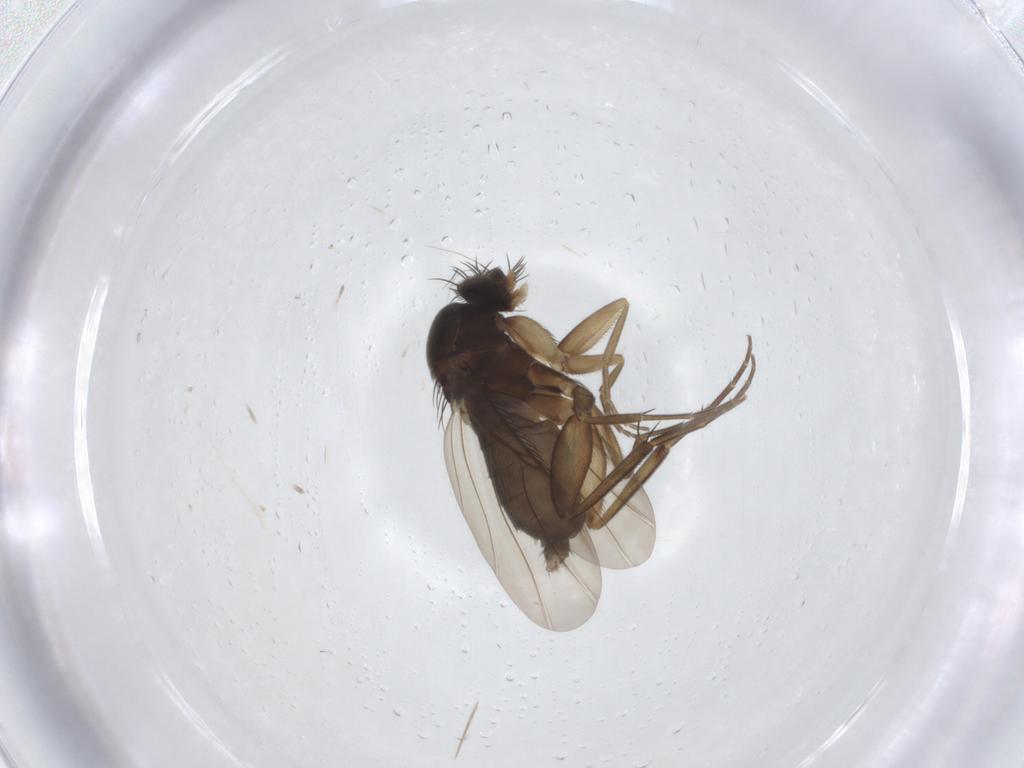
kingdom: Animalia
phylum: Arthropoda
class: Insecta
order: Diptera
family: Phoridae
